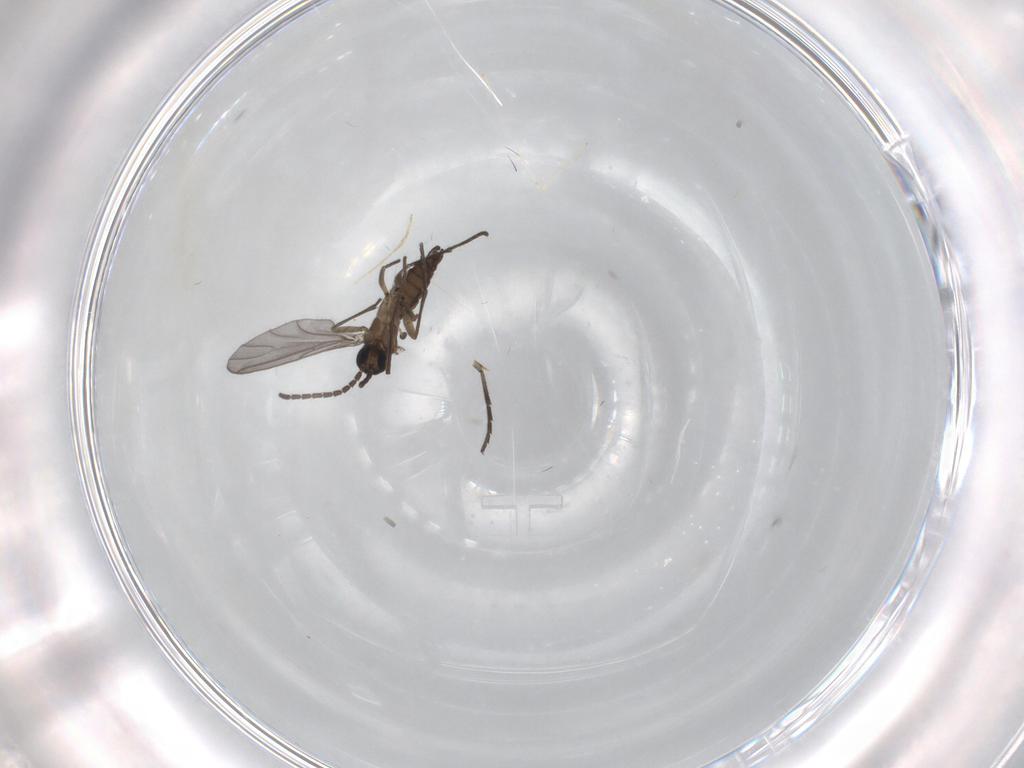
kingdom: Animalia
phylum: Arthropoda
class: Insecta
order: Diptera
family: Sciaridae
